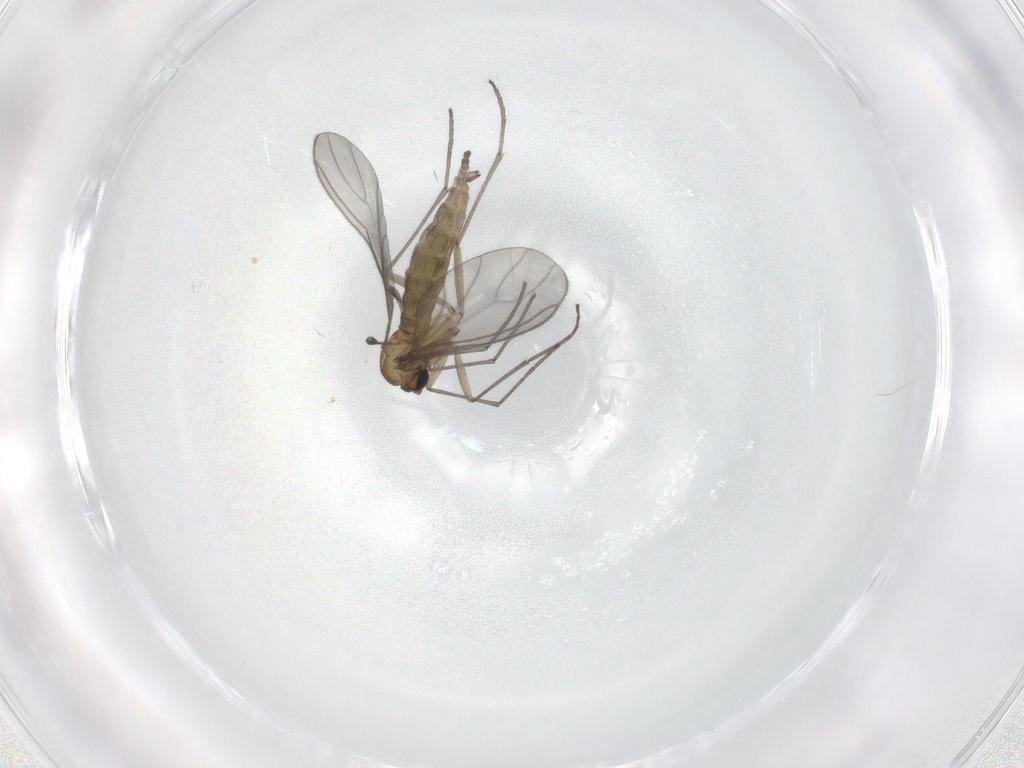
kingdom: Animalia
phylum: Arthropoda
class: Insecta
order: Diptera
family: Sciaridae
